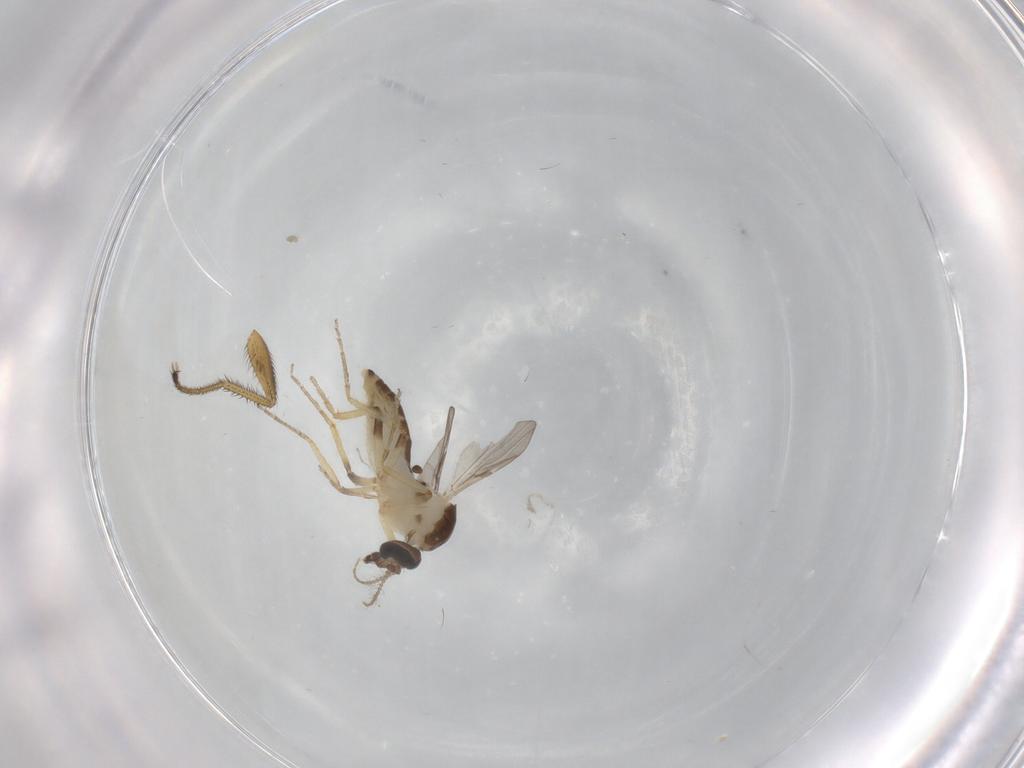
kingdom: Animalia
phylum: Arthropoda
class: Insecta
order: Diptera
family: Ceratopogonidae
